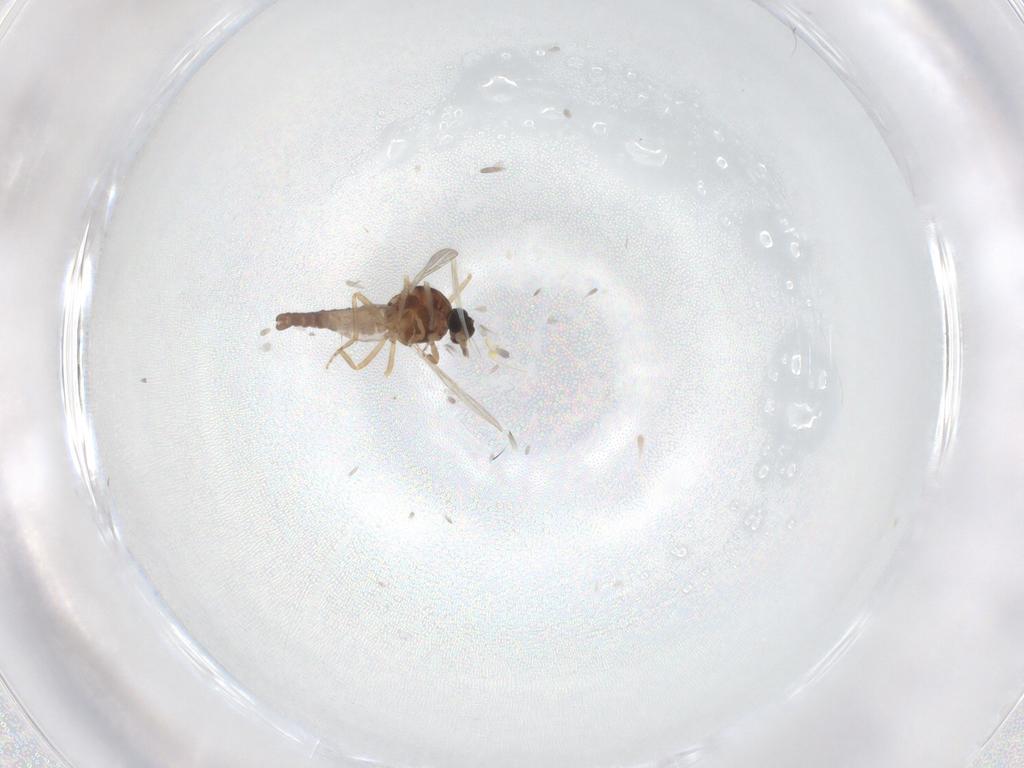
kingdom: Animalia
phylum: Arthropoda
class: Insecta
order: Diptera
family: Ceratopogonidae
